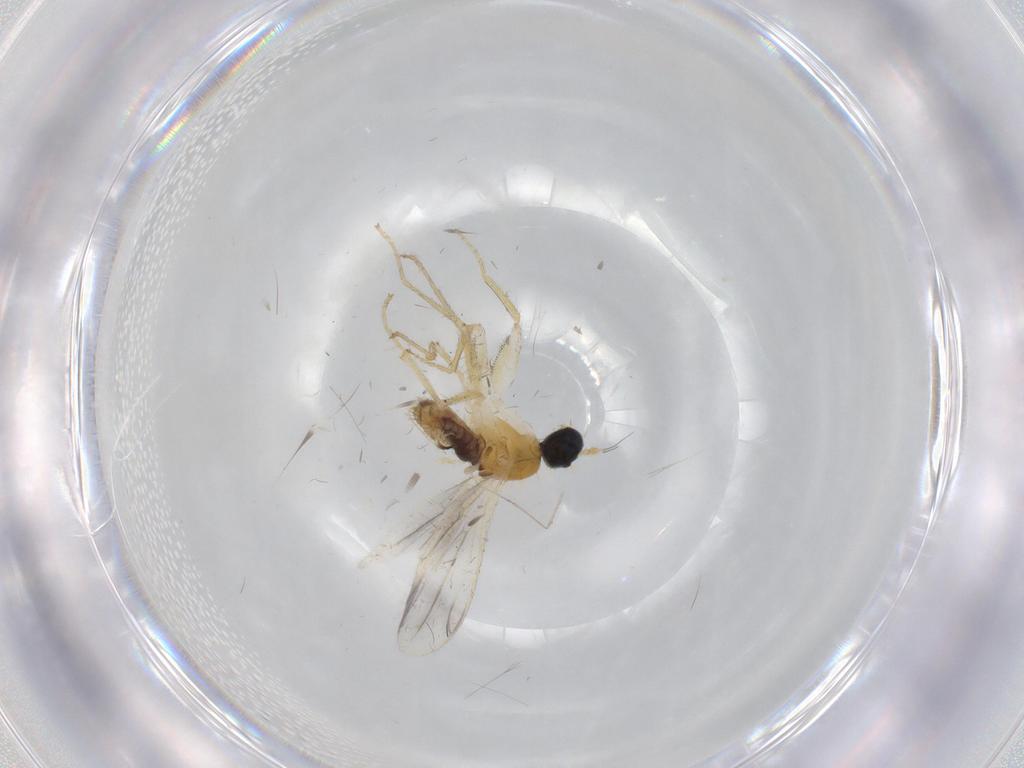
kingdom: Animalia
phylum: Arthropoda
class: Insecta
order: Diptera
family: Chironomidae
